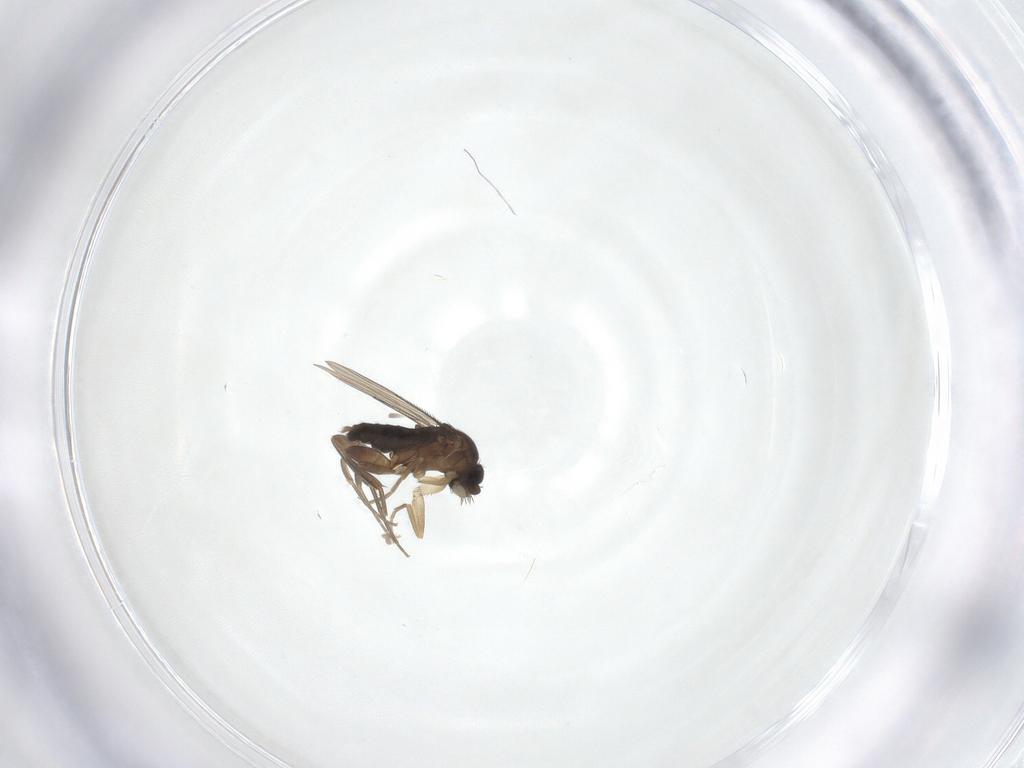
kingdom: Animalia
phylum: Arthropoda
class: Insecta
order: Diptera
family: Phoridae
